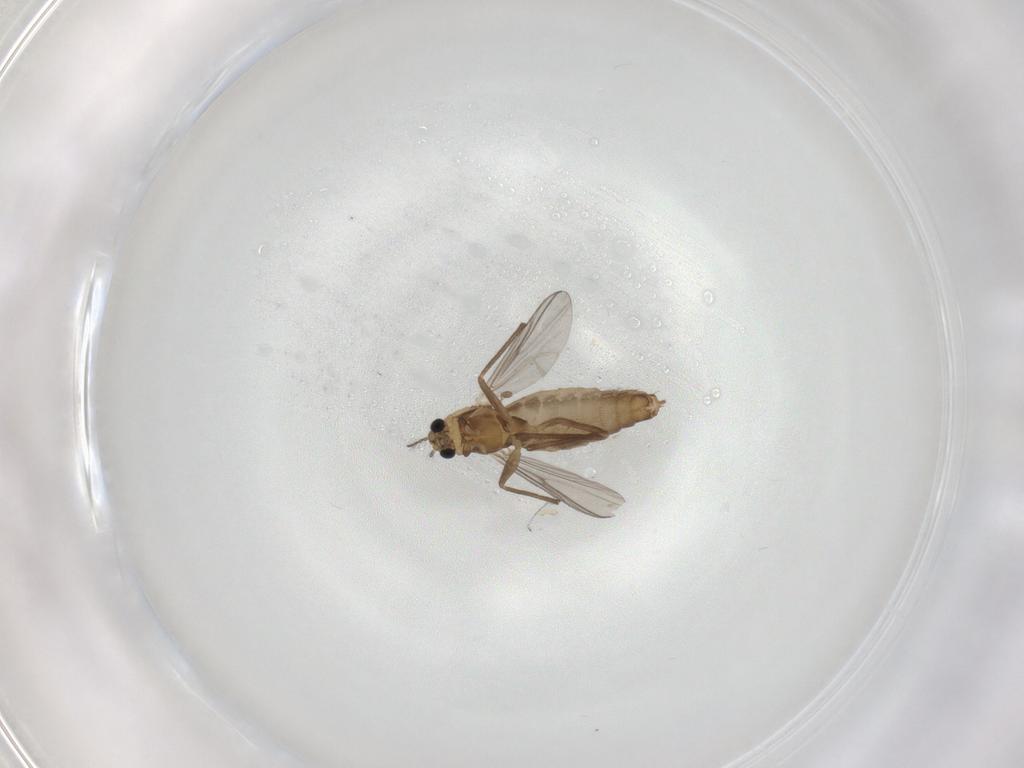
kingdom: Animalia
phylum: Arthropoda
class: Insecta
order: Diptera
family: Chironomidae
